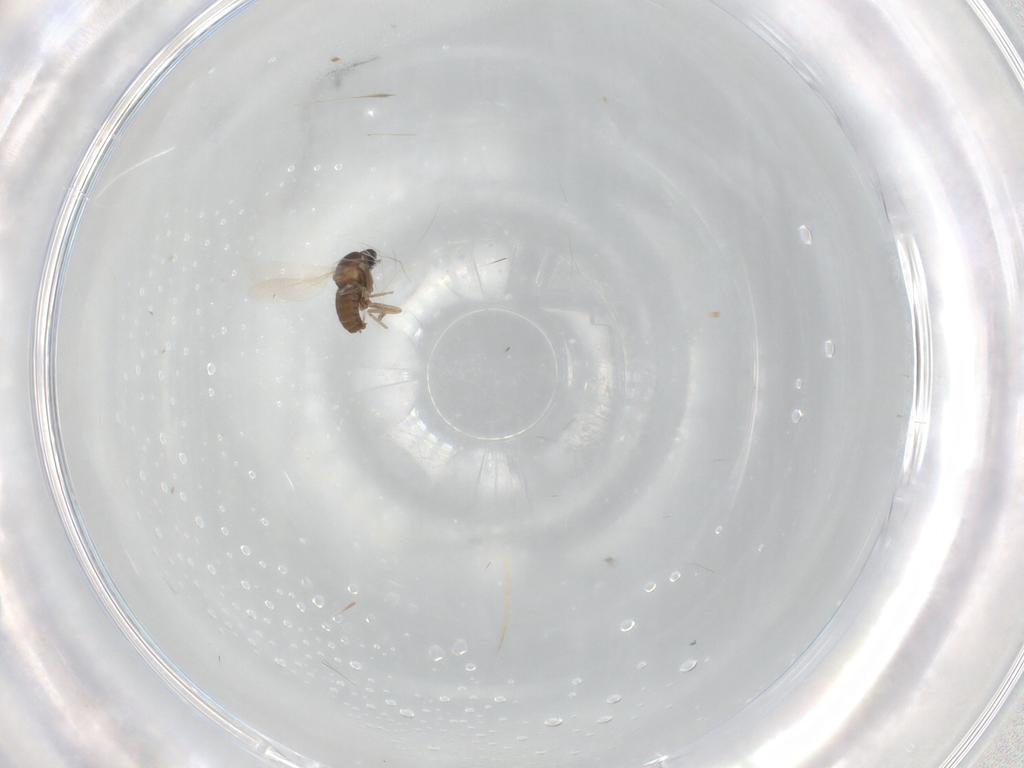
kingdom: Animalia
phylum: Arthropoda
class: Insecta
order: Diptera
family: Cecidomyiidae
